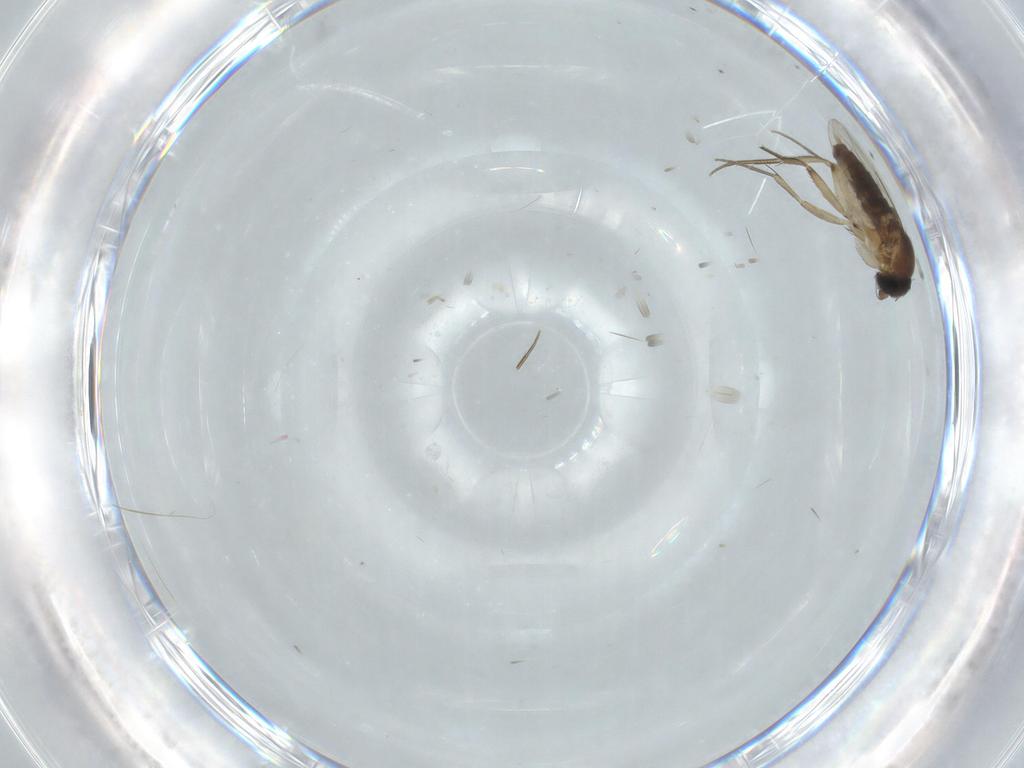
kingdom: Animalia
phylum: Arthropoda
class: Insecta
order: Diptera
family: Phoridae
